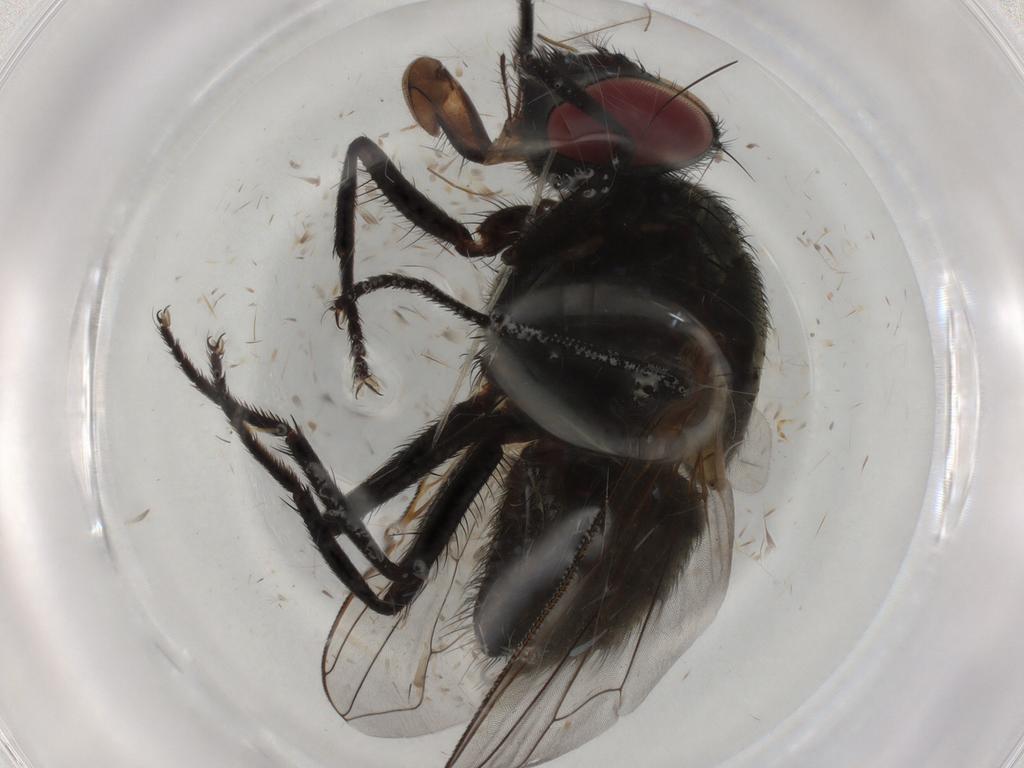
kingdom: Animalia
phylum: Arthropoda
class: Insecta
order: Diptera
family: Muscidae
